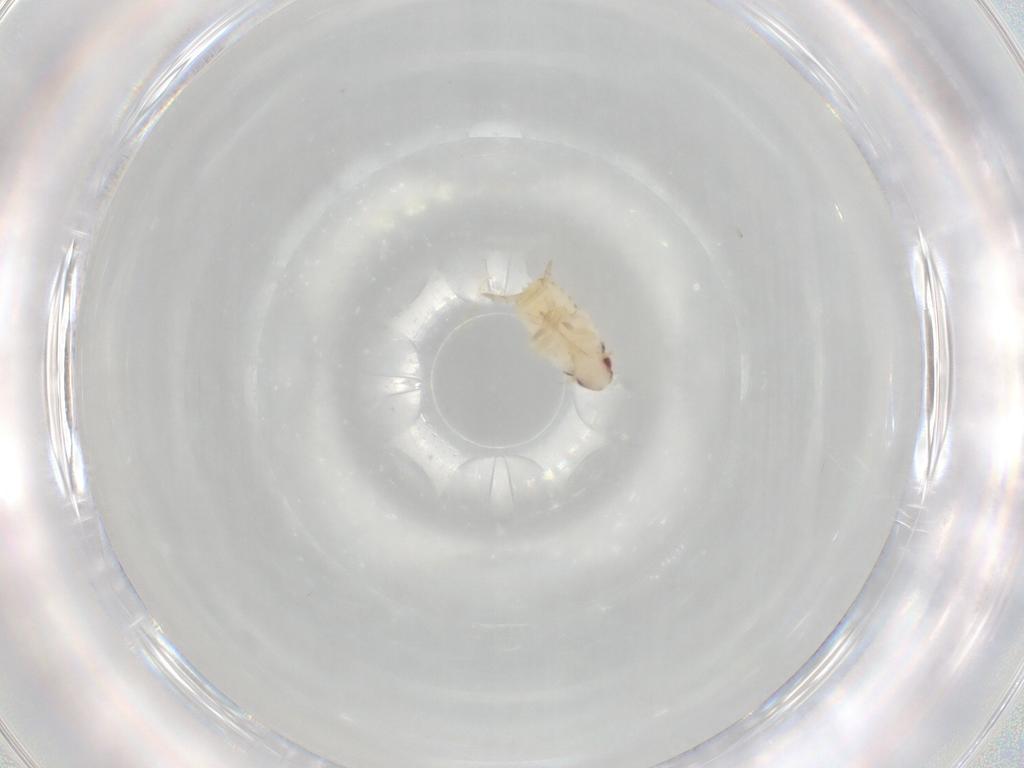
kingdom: Animalia
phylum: Arthropoda
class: Insecta
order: Hemiptera
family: Flatidae
